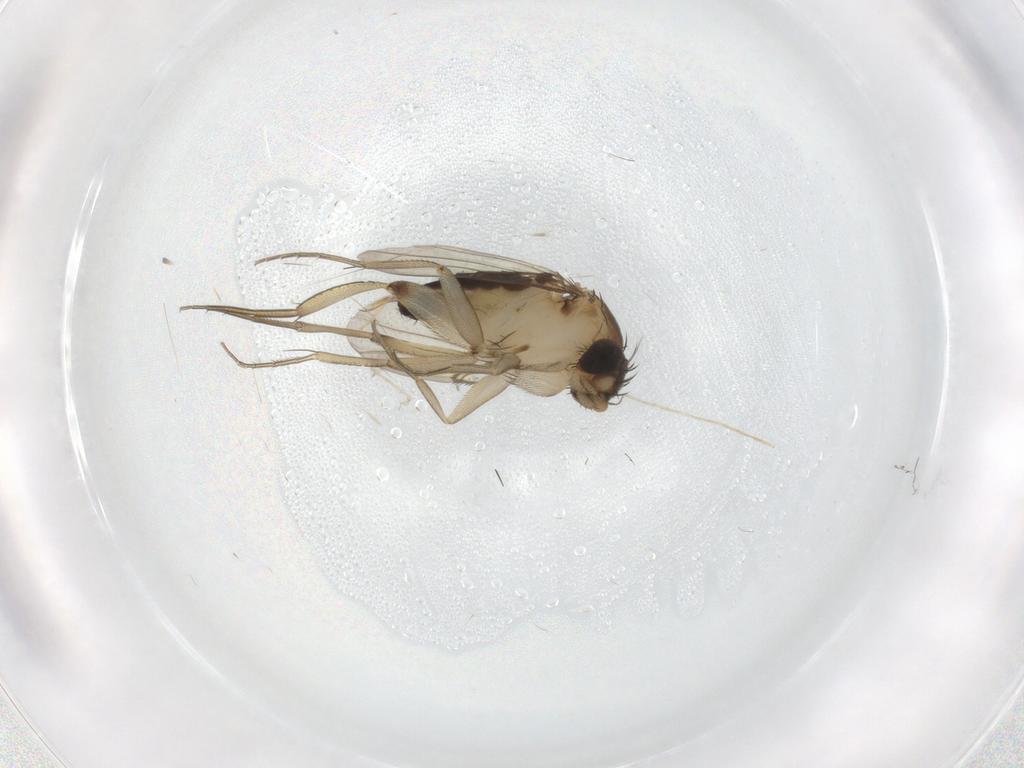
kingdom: Animalia
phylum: Arthropoda
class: Insecta
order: Diptera
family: Phoridae
